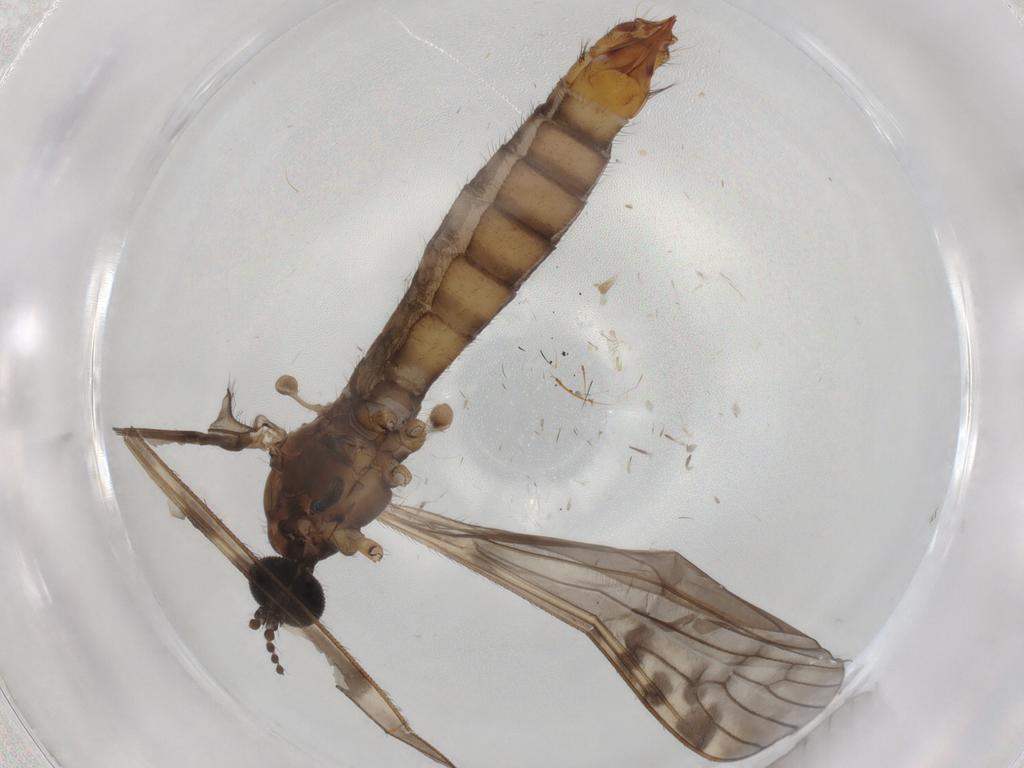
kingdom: Animalia
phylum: Arthropoda
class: Insecta
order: Diptera
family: Limoniidae
